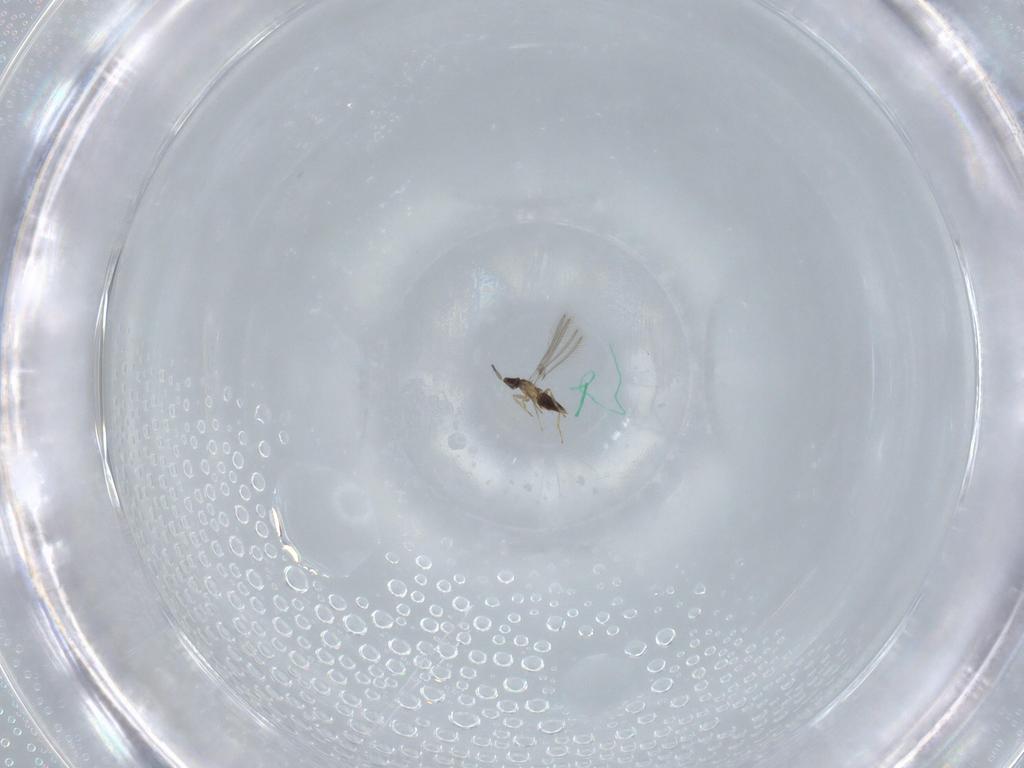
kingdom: Animalia
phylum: Arthropoda
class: Insecta
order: Hymenoptera
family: Mymaridae
